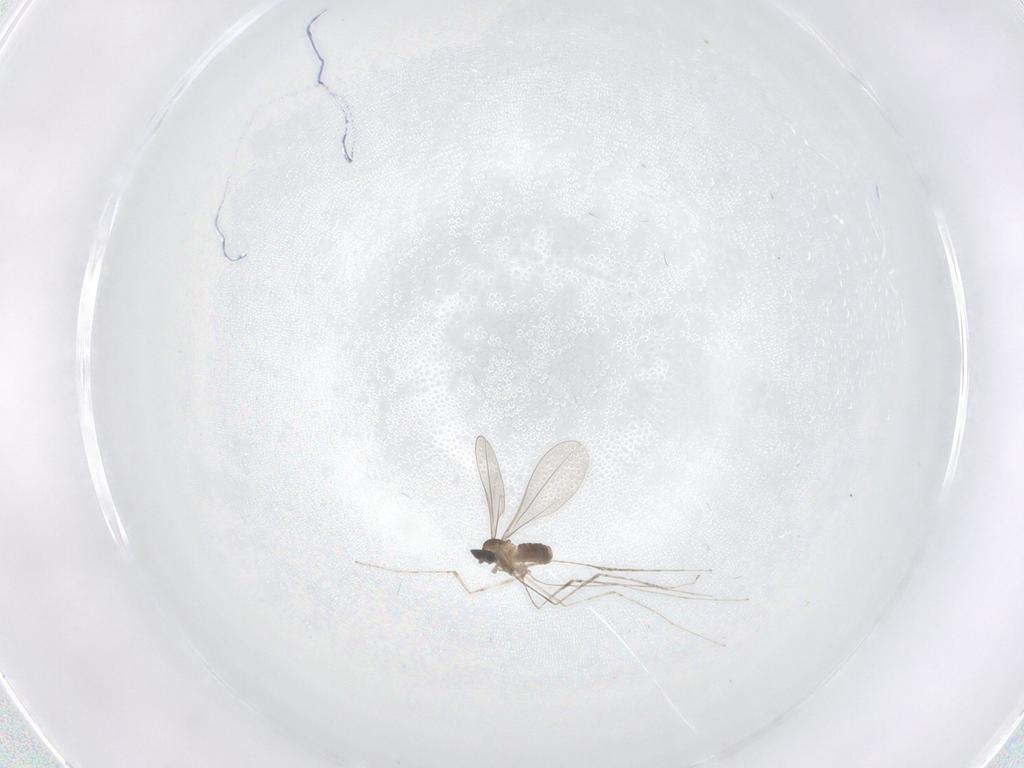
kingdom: Animalia
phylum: Arthropoda
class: Insecta
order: Diptera
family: Cecidomyiidae
